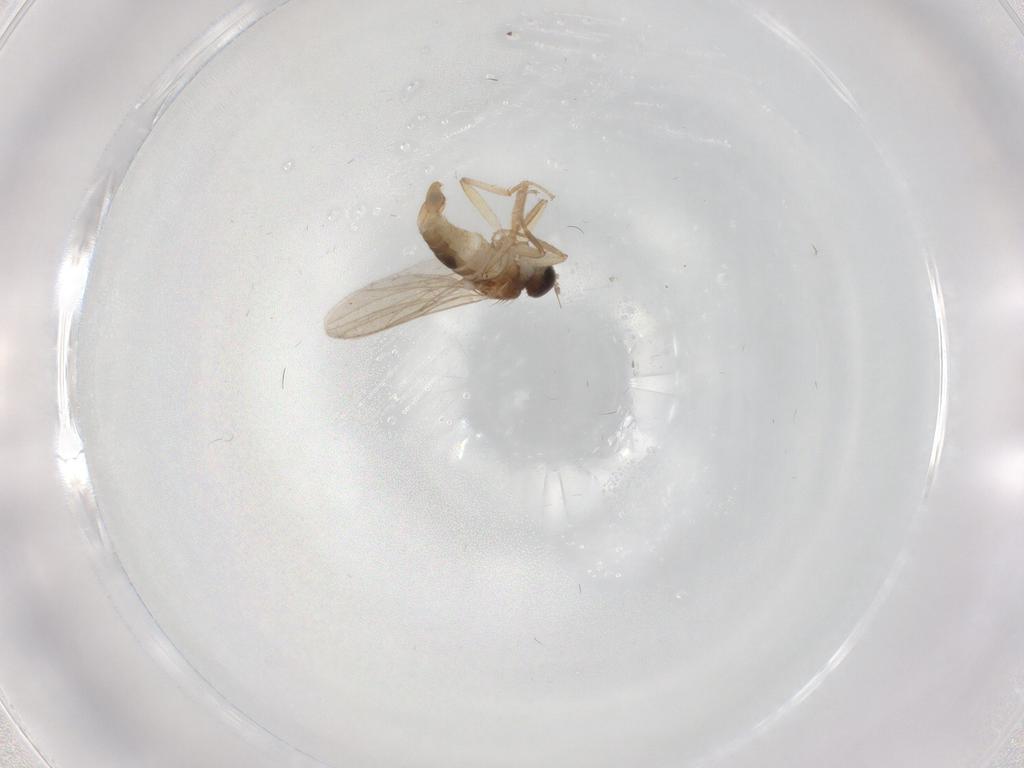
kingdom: Animalia
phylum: Arthropoda
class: Insecta
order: Diptera
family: Hybotidae
